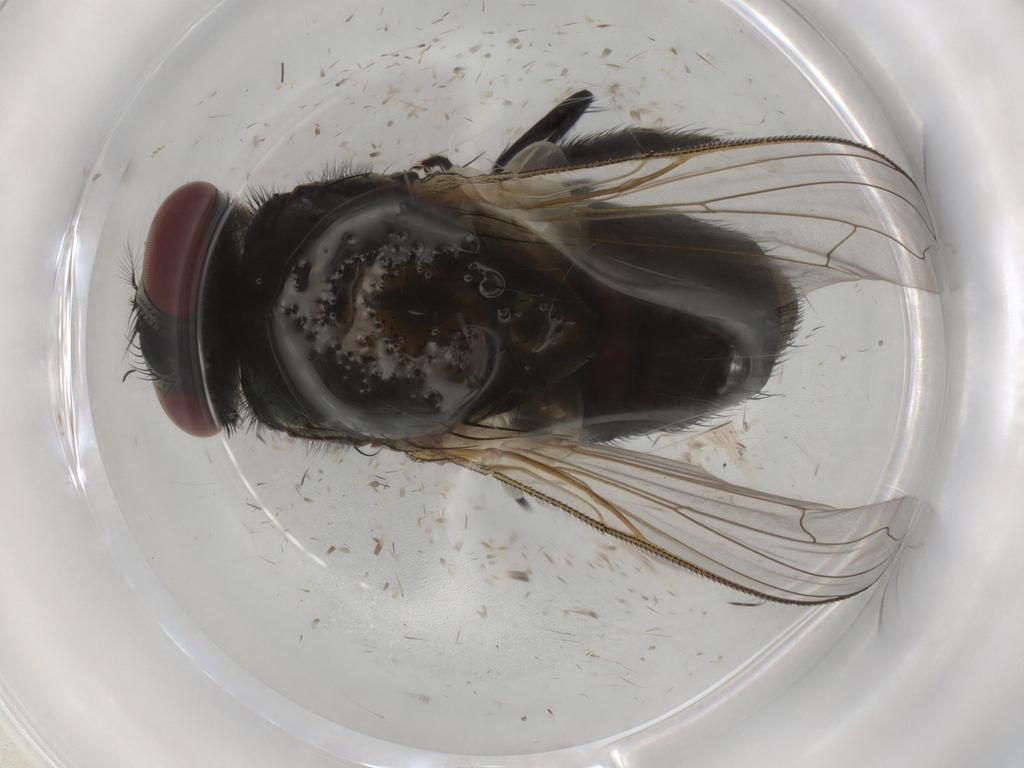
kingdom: Animalia
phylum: Arthropoda
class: Insecta
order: Diptera
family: Muscidae
